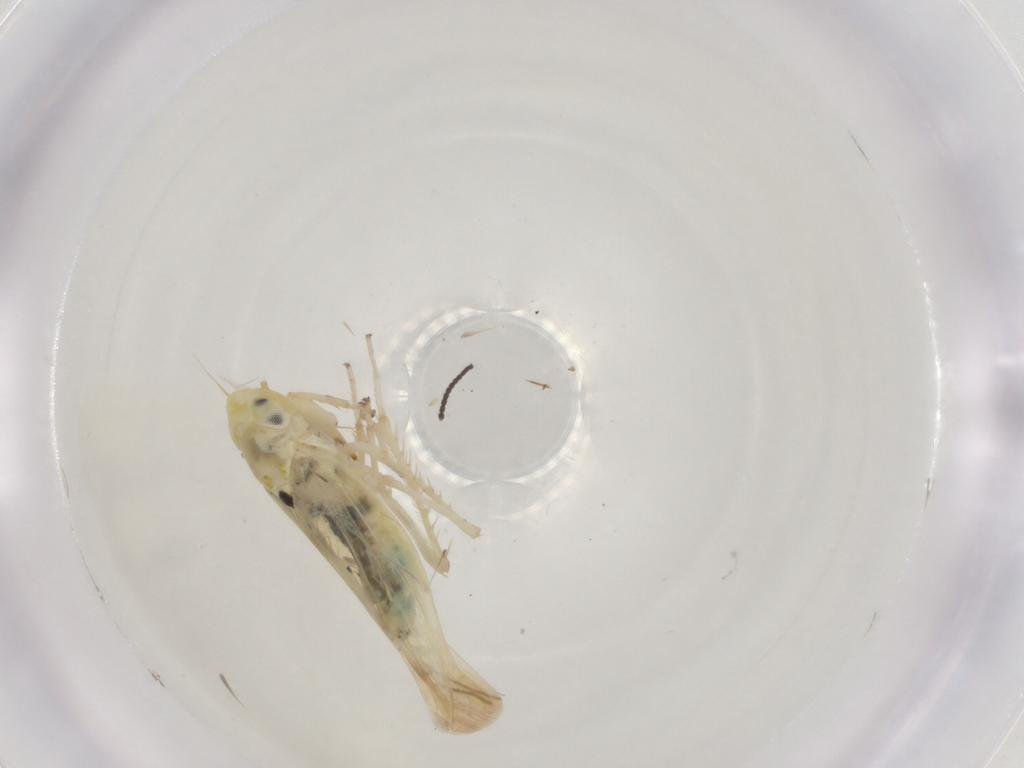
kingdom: Animalia
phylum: Arthropoda
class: Insecta
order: Hemiptera
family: Cicadellidae
